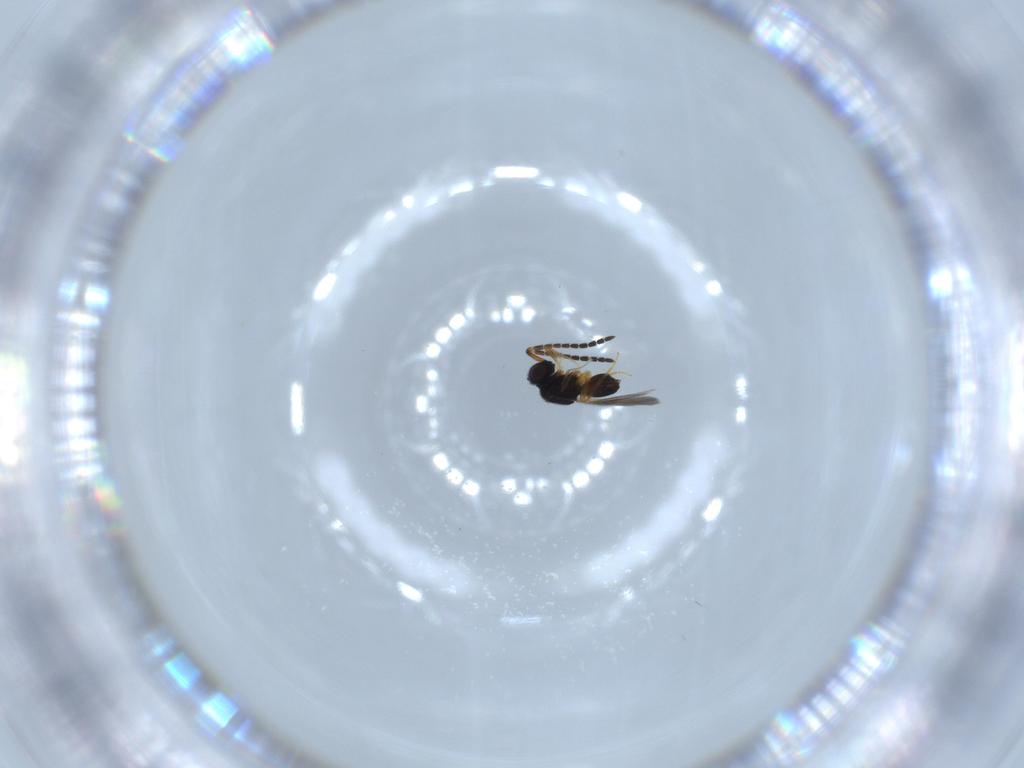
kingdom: Animalia
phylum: Arthropoda
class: Insecta
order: Hymenoptera
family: Ceraphronidae
